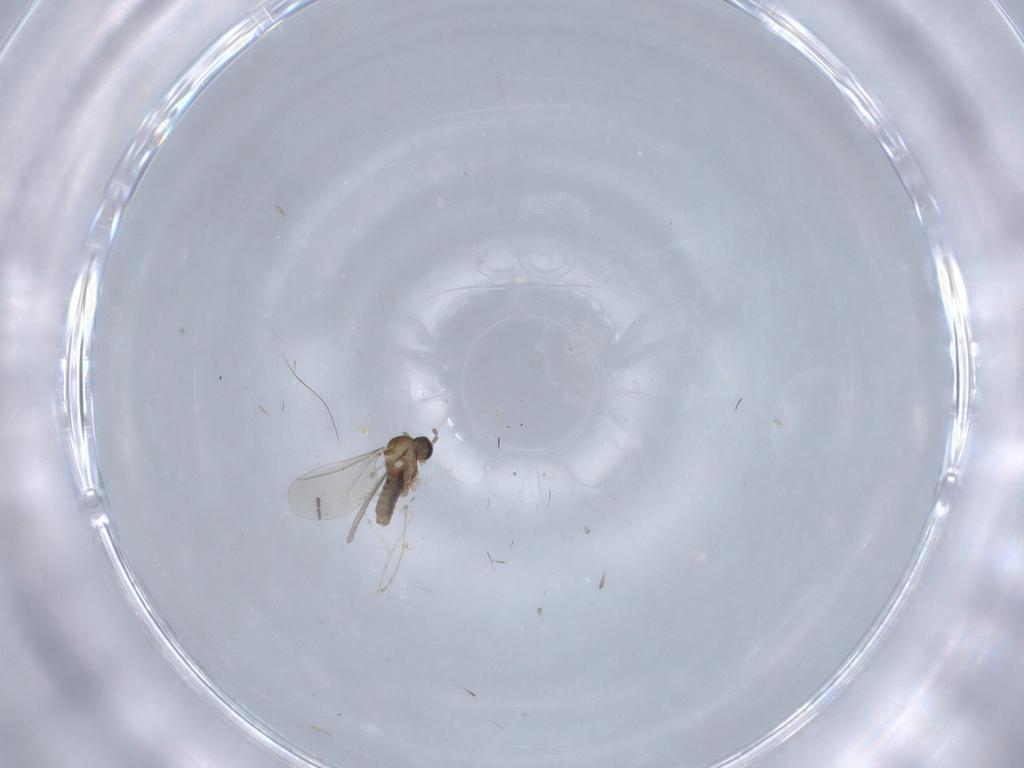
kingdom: Animalia
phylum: Arthropoda
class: Insecta
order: Diptera
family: Cecidomyiidae
